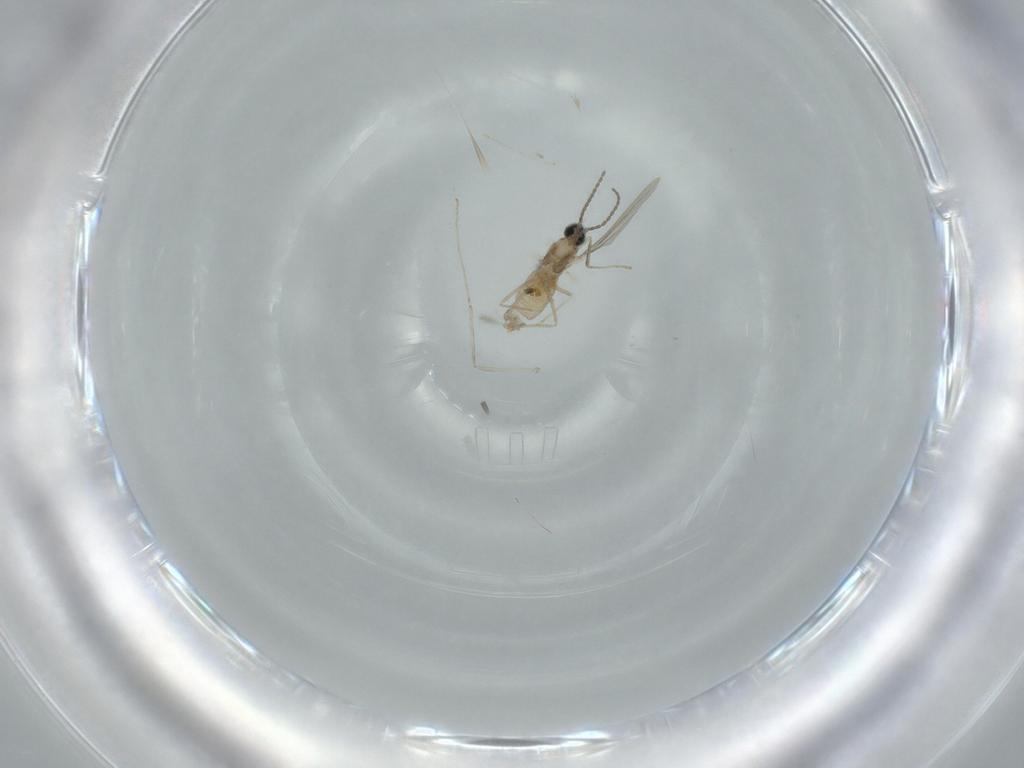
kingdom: Animalia
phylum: Arthropoda
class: Insecta
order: Diptera
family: Cecidomyiidae
